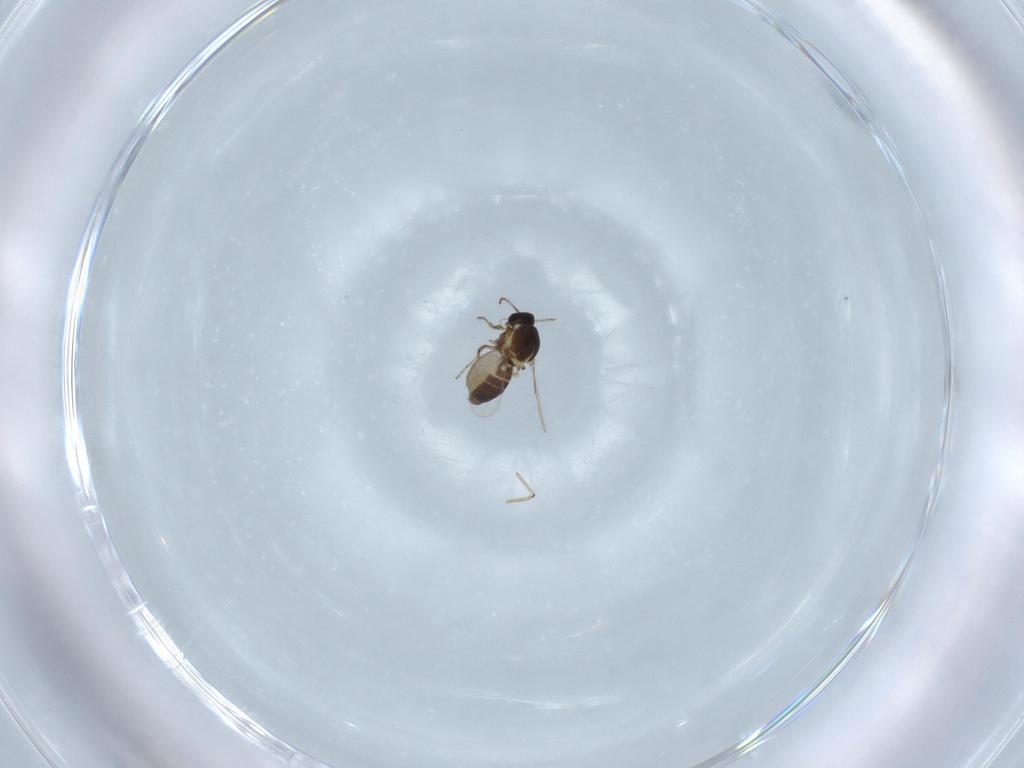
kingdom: Animalia
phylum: Arthropoda
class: Insecta
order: Diptera
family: Ceratopogonidae
